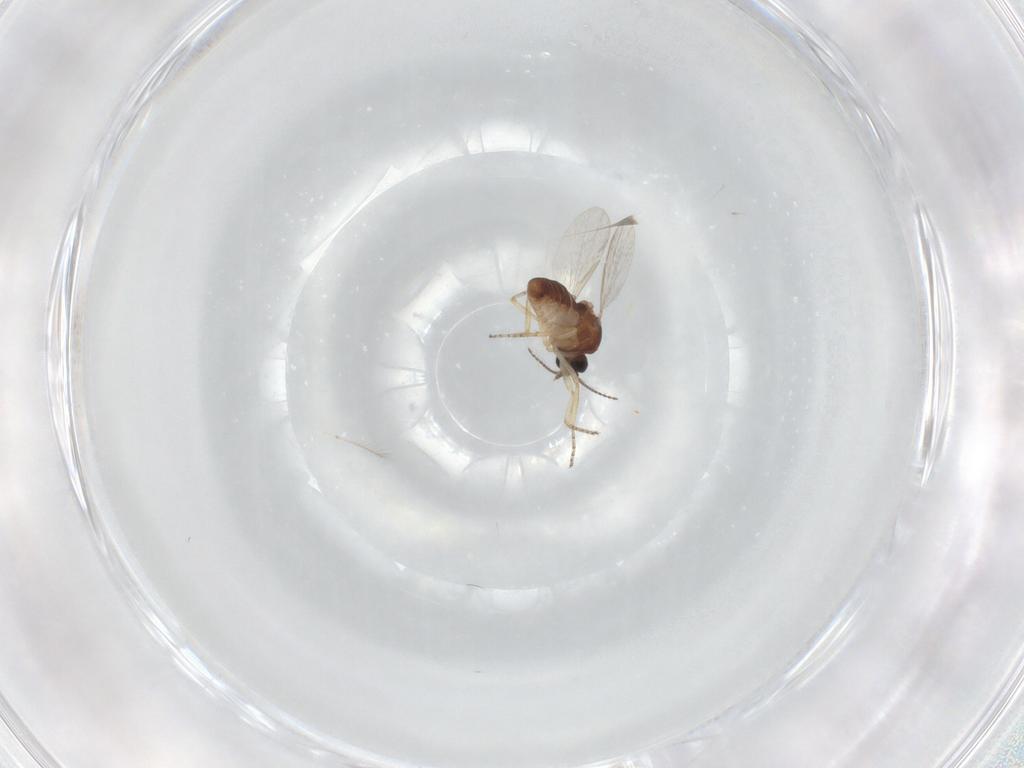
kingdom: Animalia
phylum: Arthropoda
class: Insecta
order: Diptera
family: Ceratopogonidae
